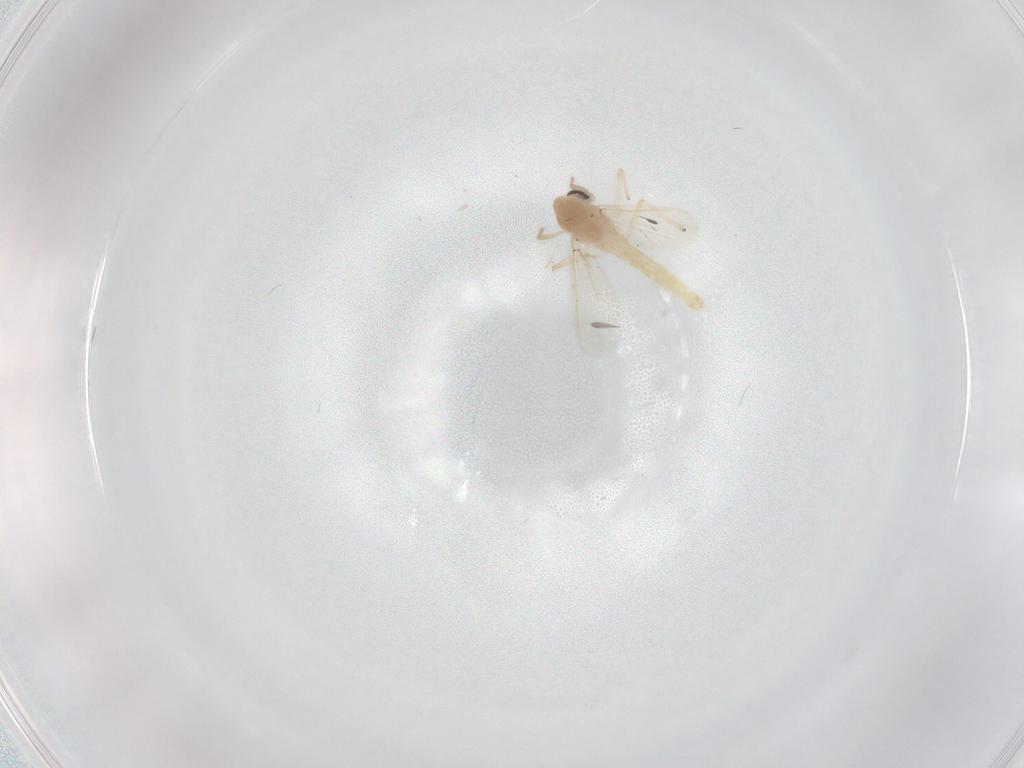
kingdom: Animalia
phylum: Arthropoda
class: Insecta
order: Diptera
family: Chironomidae
